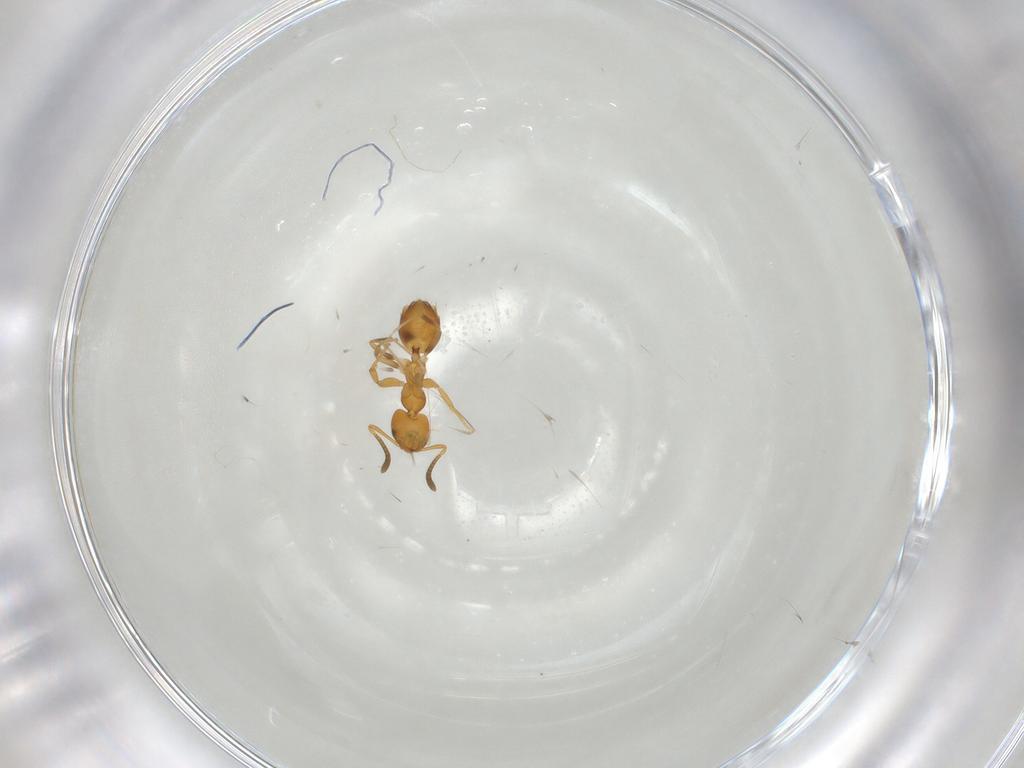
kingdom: Animalia
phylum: Arthropoda
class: Insecta
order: Hymenoptera
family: Formicidae
